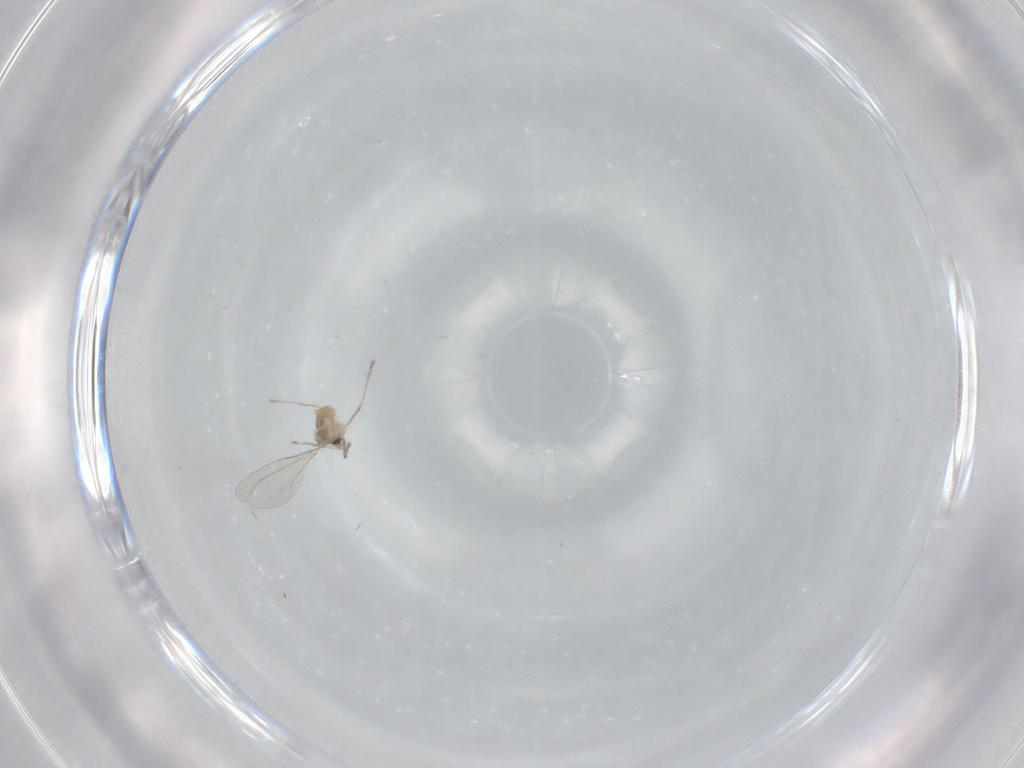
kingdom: Animalia
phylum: Arthropoda
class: Insecta
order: Diptera
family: Cecidomyiidae
